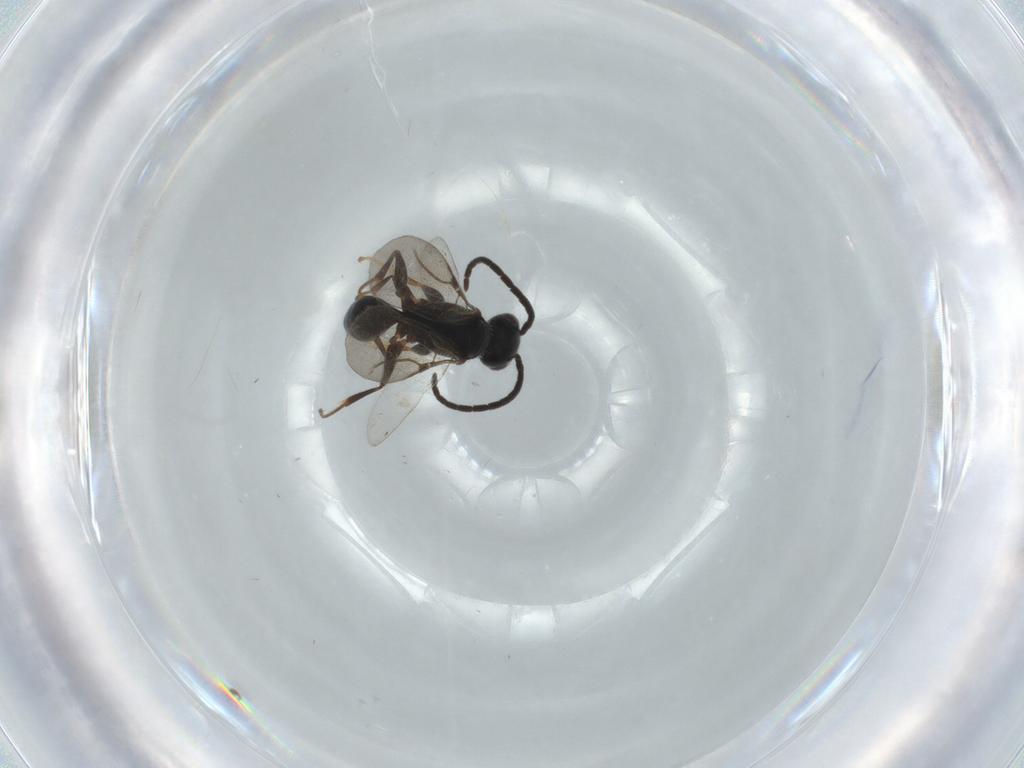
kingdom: Animalia
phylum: Arthropoda
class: Insecta
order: Hymenoptera
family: Bethylidae
